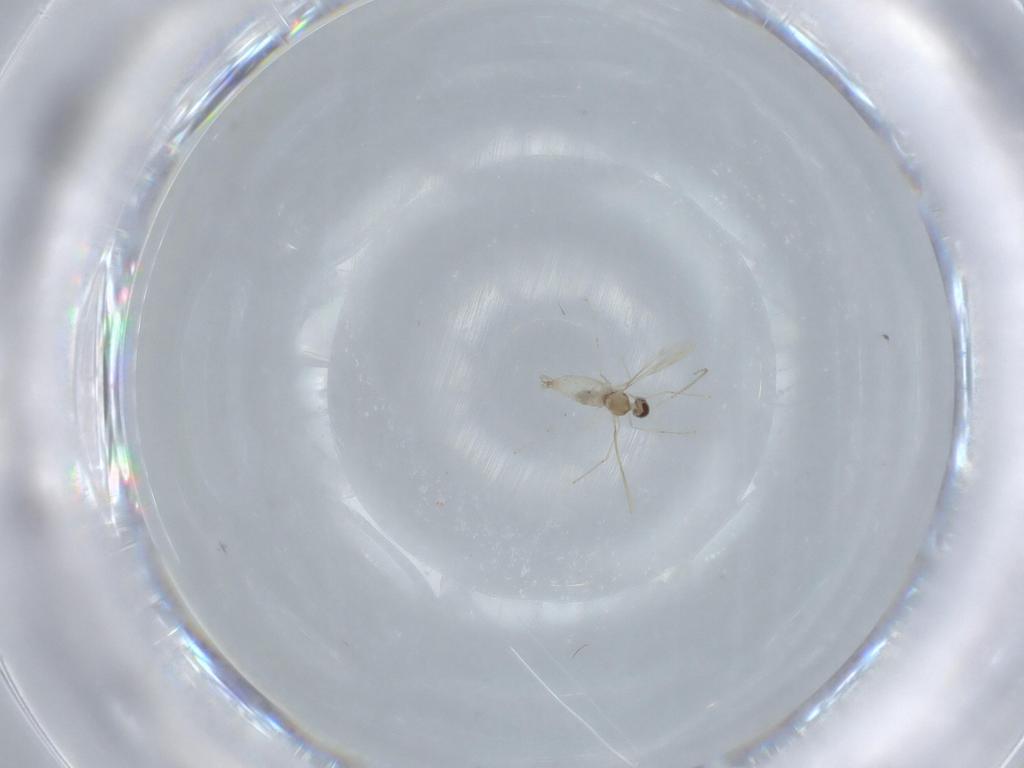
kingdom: Animalia
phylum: Arthropoda
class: Insecta
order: Diptera
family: Cecidomyiidae
